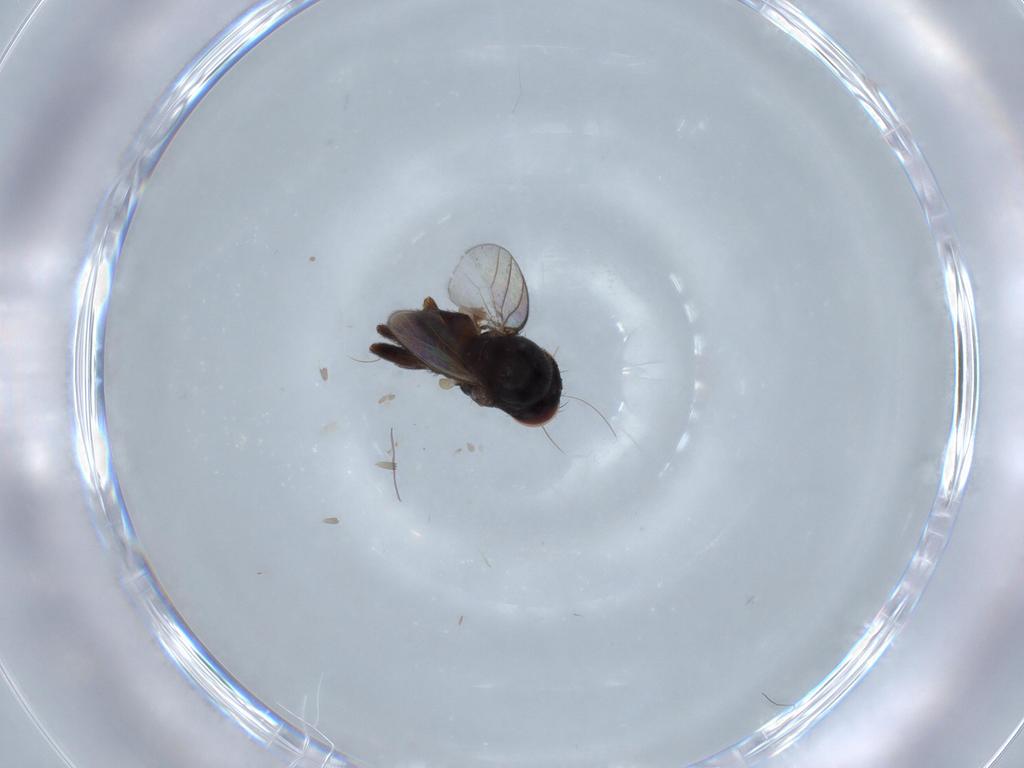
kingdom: Animalia
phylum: Arthropoda
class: Insecta
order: Diptera
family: Milichiidae
